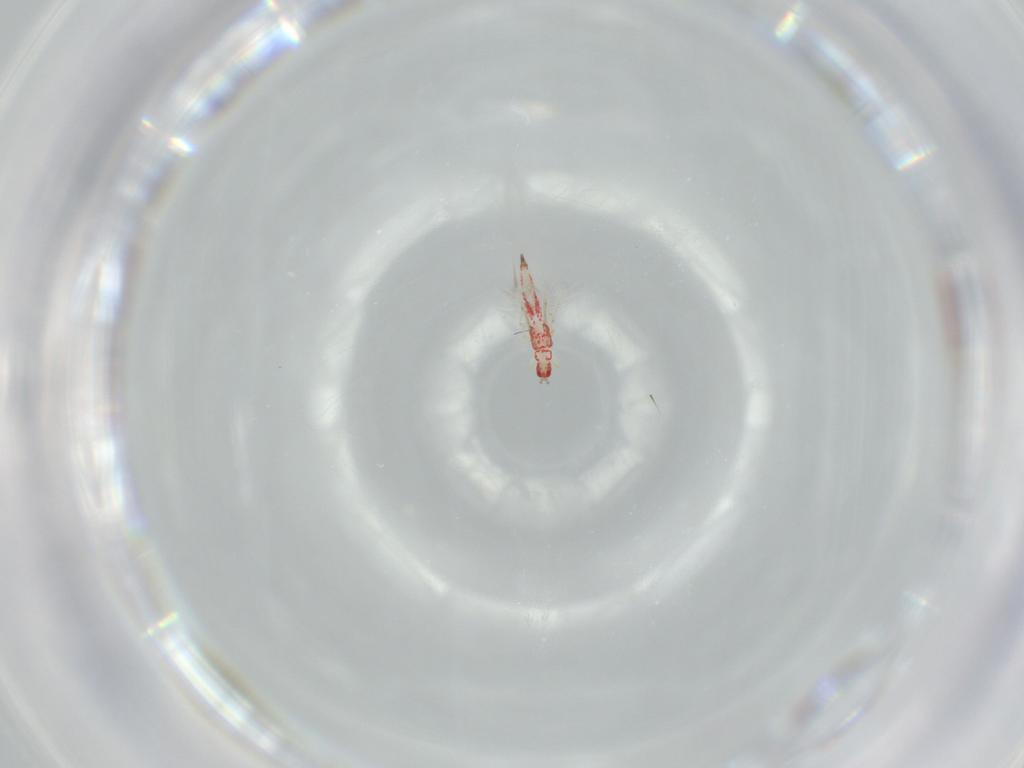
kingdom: Animalia
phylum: Arthropoda
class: Insecta
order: Thysanoptera
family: Phlaeothripidae
